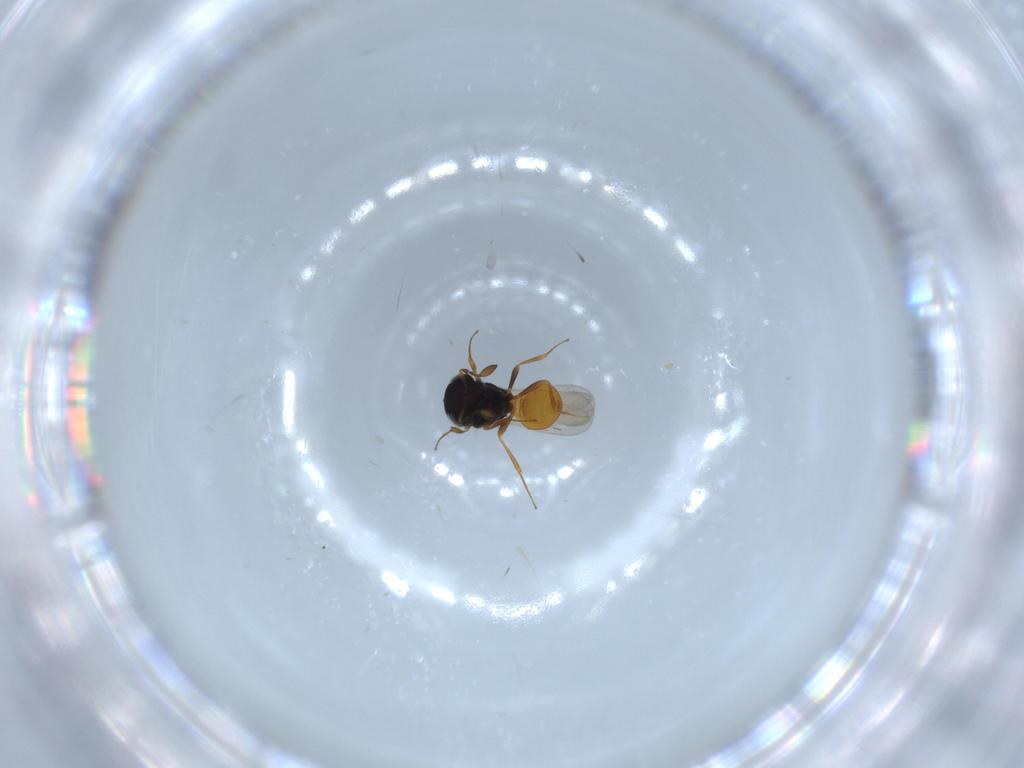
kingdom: Animalia
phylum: Arthropoda
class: Insecta
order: Hymenoptera
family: Scelionidae
